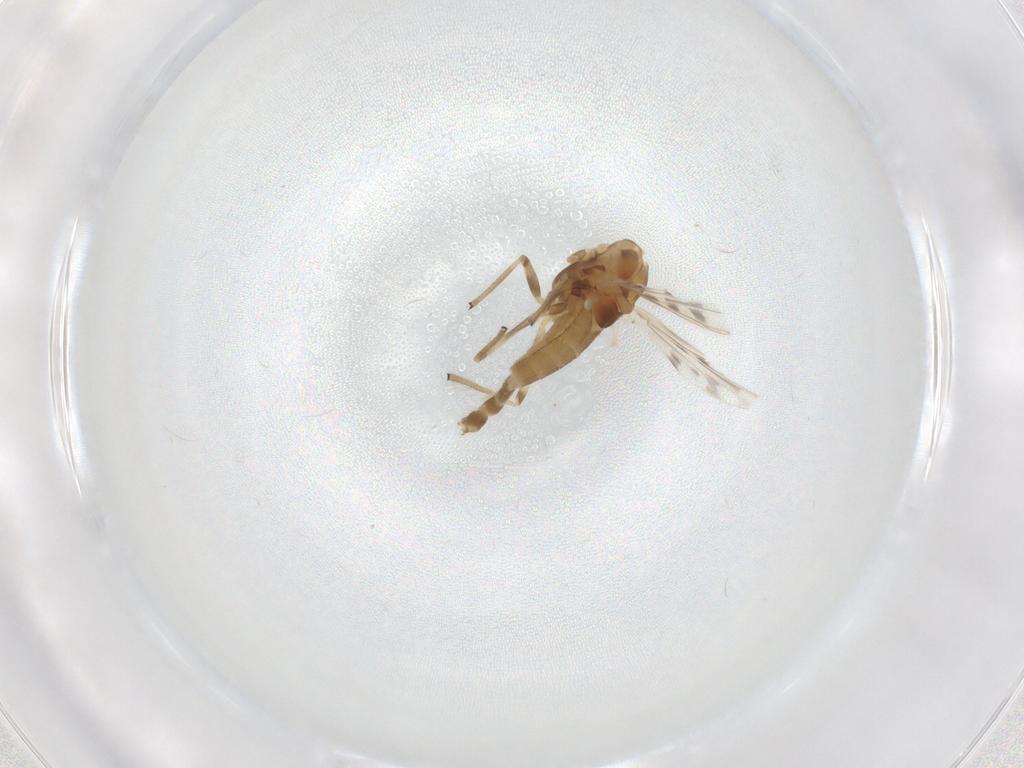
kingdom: Animalia
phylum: Arthropoda
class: Insecta
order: Diptera
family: Chironomidae
